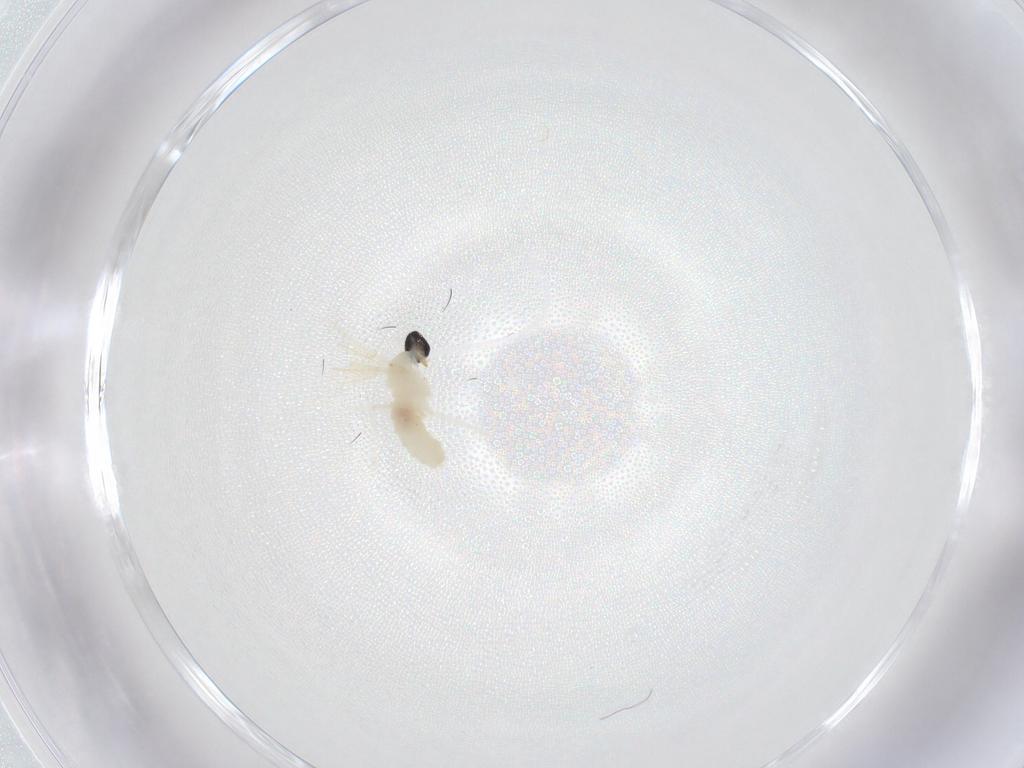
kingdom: Animalia
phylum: Arthropoda
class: Insecta
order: Diptera
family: Cecidomyiidae
